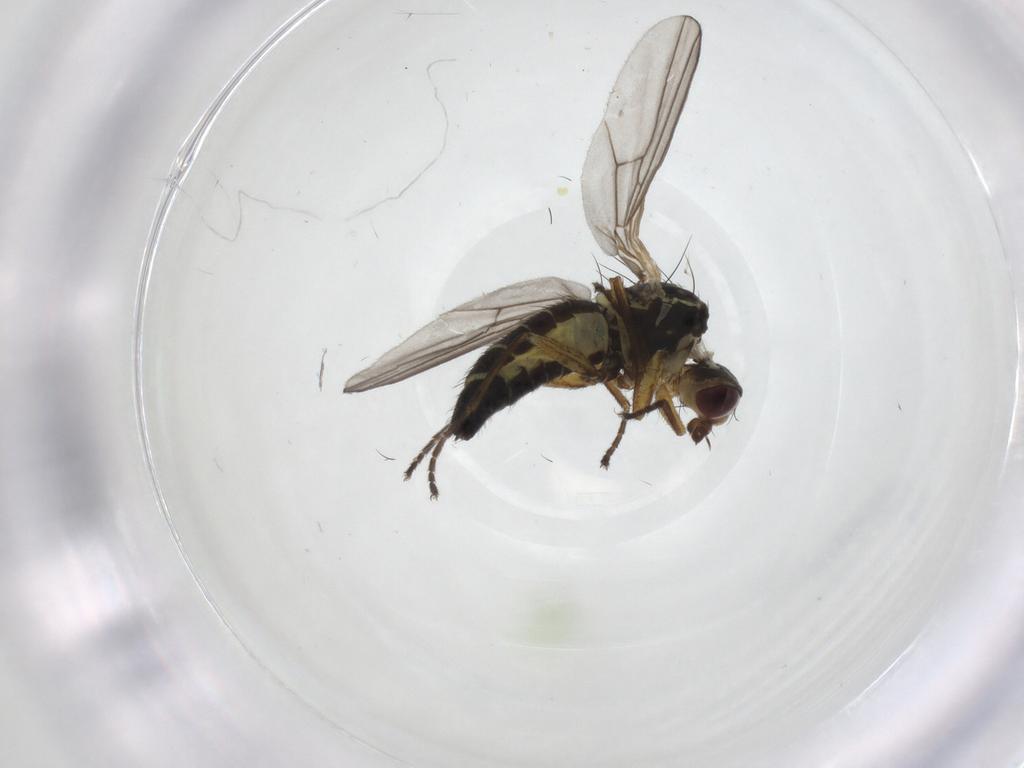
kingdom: Animalia
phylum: Arthropoda
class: Insecta
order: Diptera
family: Agromyzidae
